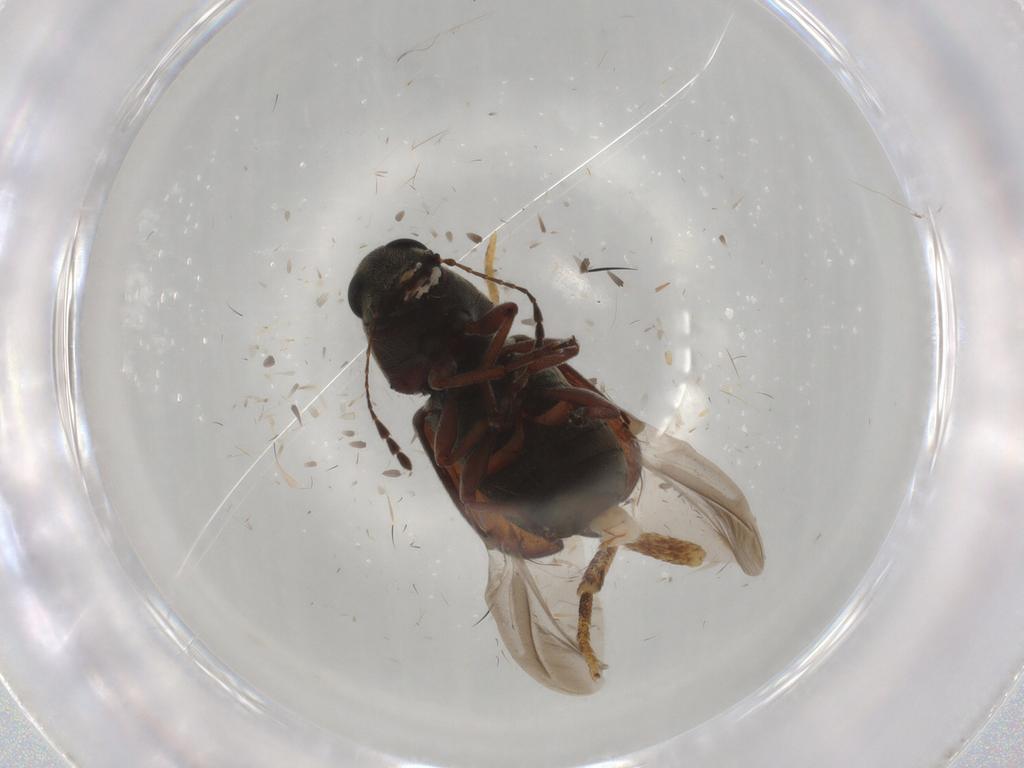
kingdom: Animalia
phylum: Arthropoda
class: Insecta
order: Coleoptera
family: Anthribidae
